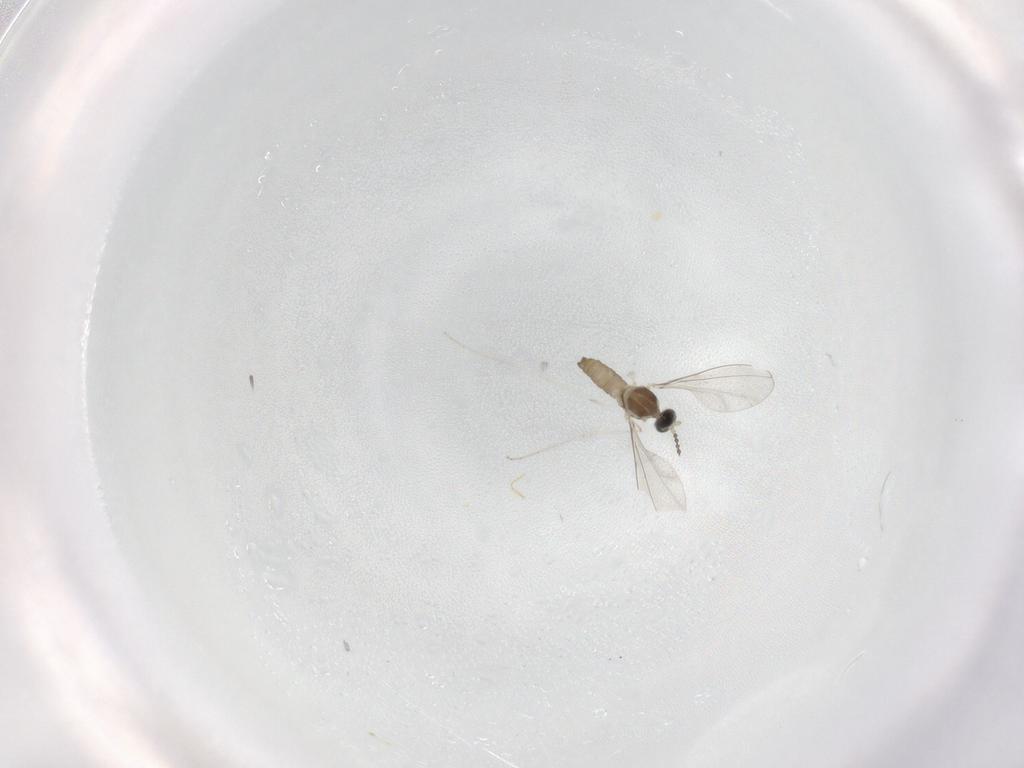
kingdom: Animalia
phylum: Arthropoda
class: Insecta
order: Diptera
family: Cecidomyiidae
